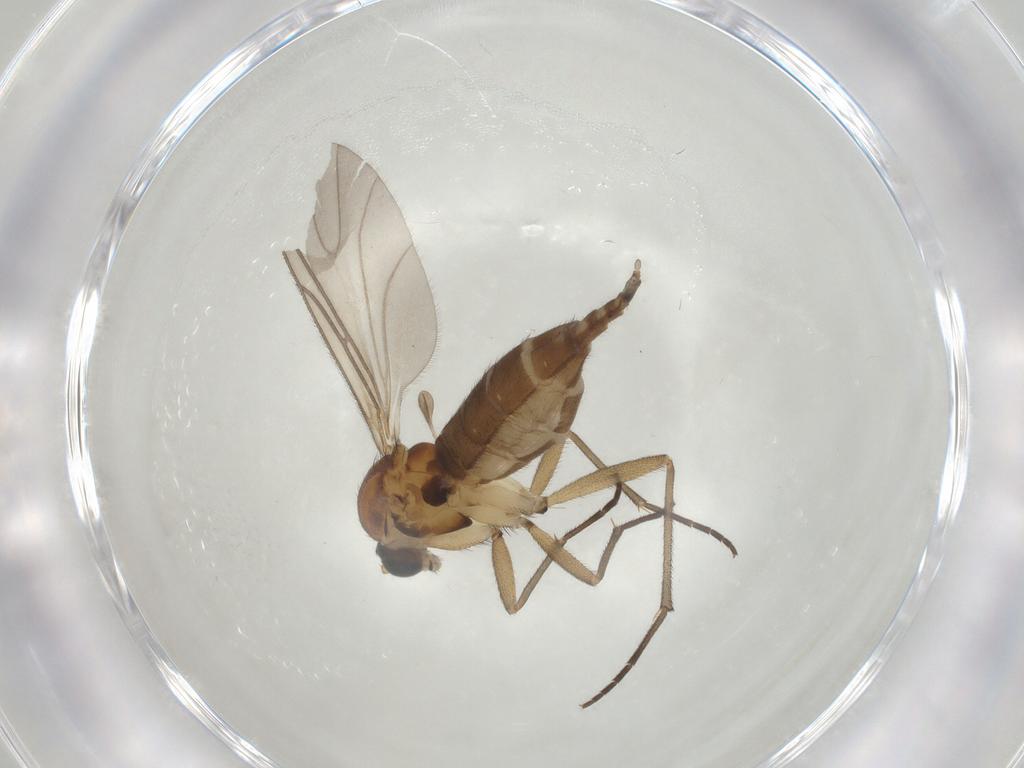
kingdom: Animalia
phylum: Arthropoda
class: Insecta
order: Diptera
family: Sciaridae
